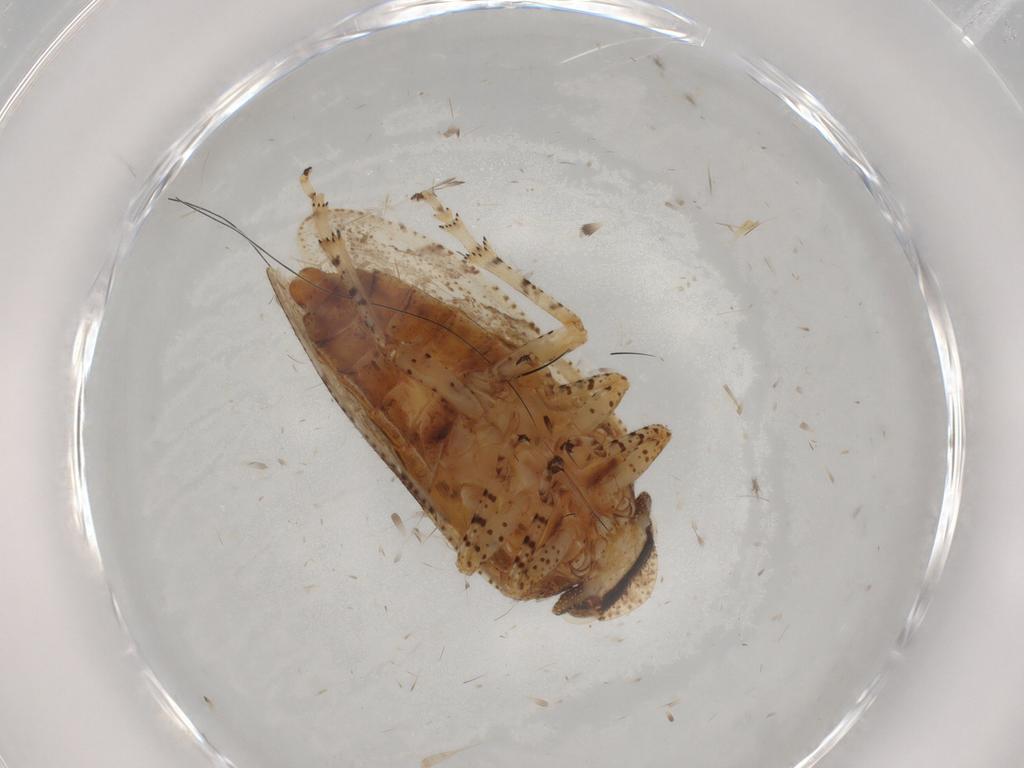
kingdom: Animalia
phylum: Arthropoda
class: Insecta
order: Hemiptera
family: Tettigometridae
